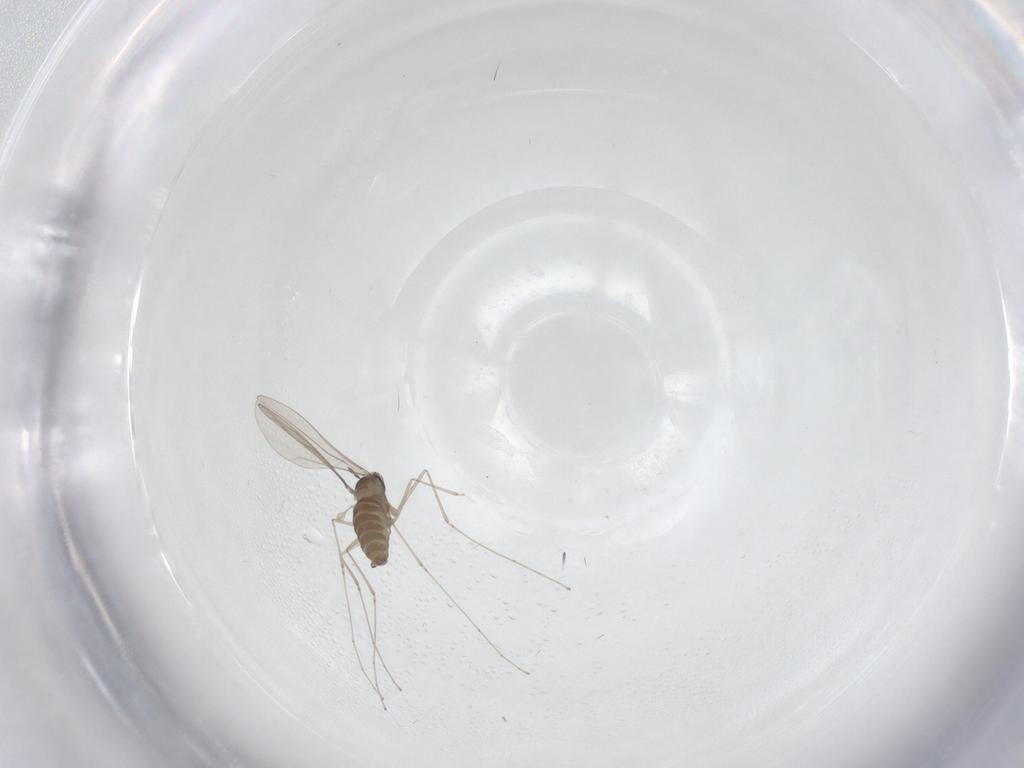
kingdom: Animalia
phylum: Arthropoda
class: Insecta
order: Diptera
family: Cecidomyiidae
